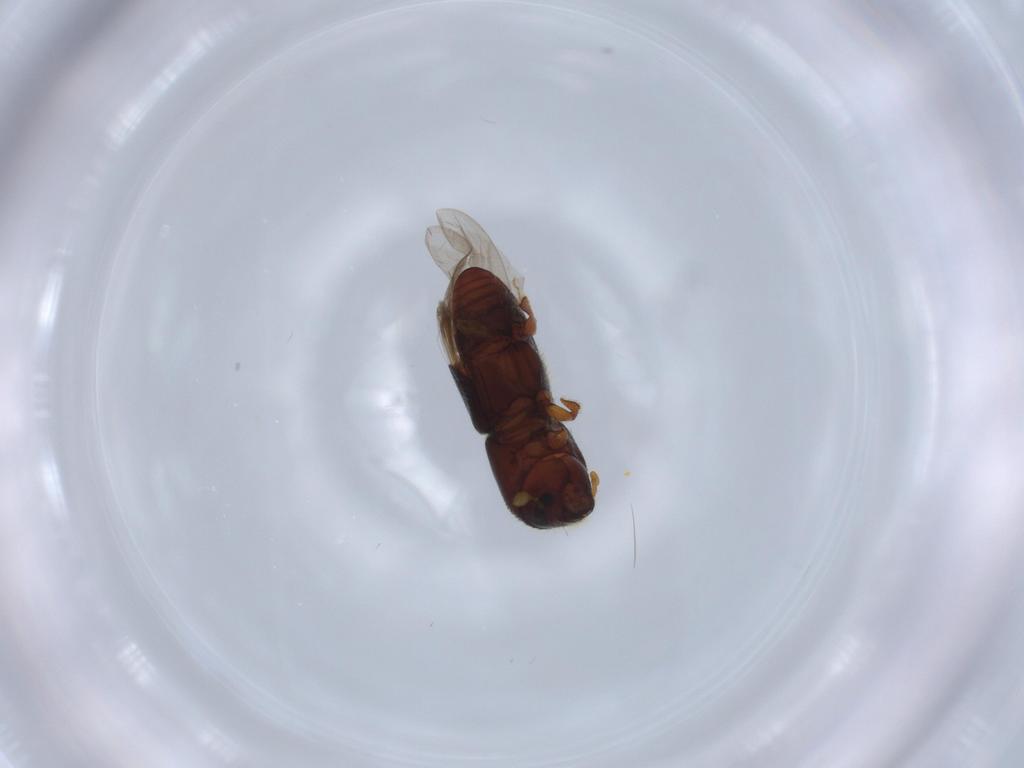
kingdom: Animalia
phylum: Arthropoda
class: Insecta
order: Coleoptera
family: Curculionidae
